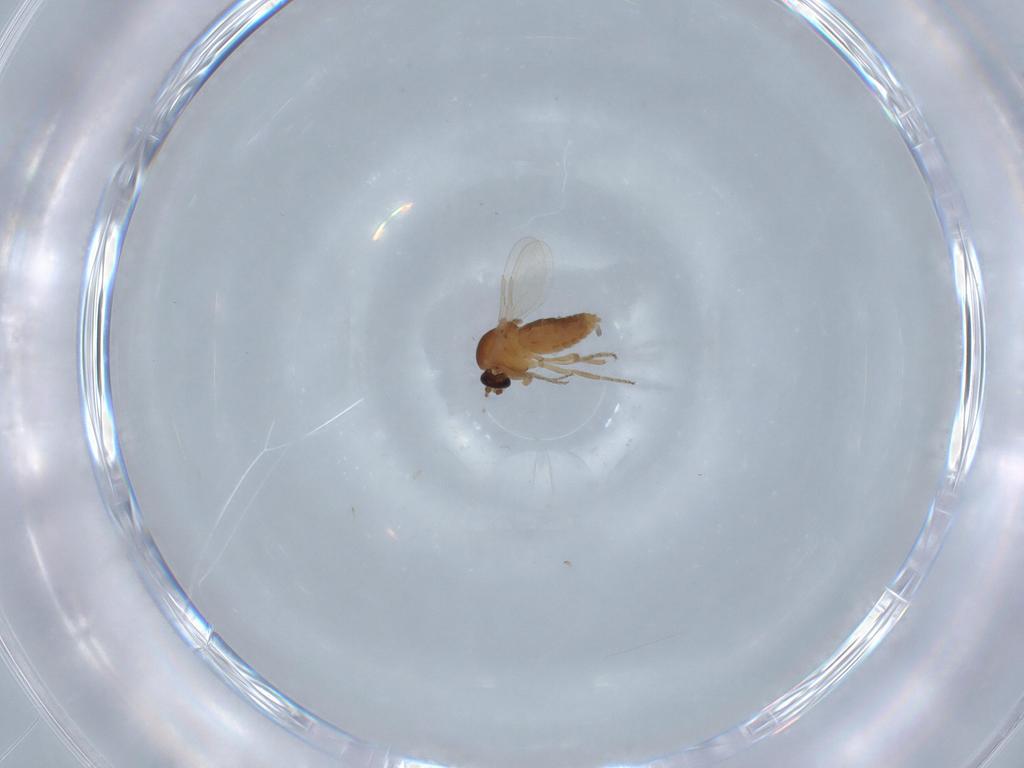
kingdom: Animalia
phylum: Arthropoda
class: Insecta
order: Diptera
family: Ceratopogonidae
